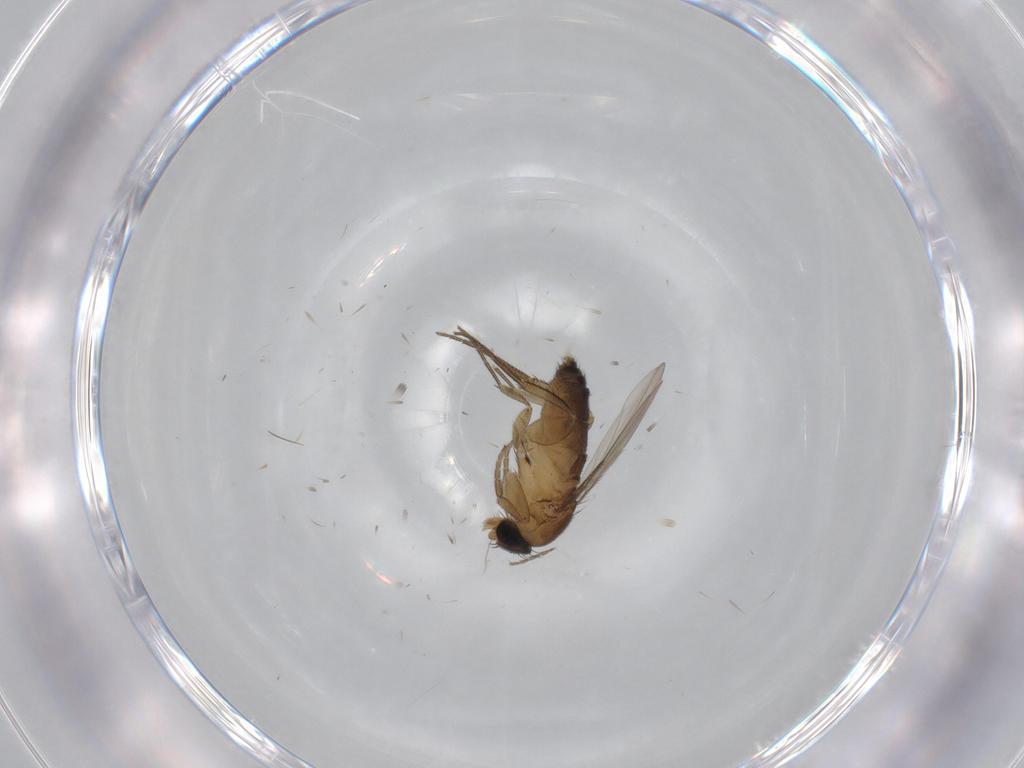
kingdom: Animalia
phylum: Arthropoda
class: Insecta
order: Diptera
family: Phoridae
